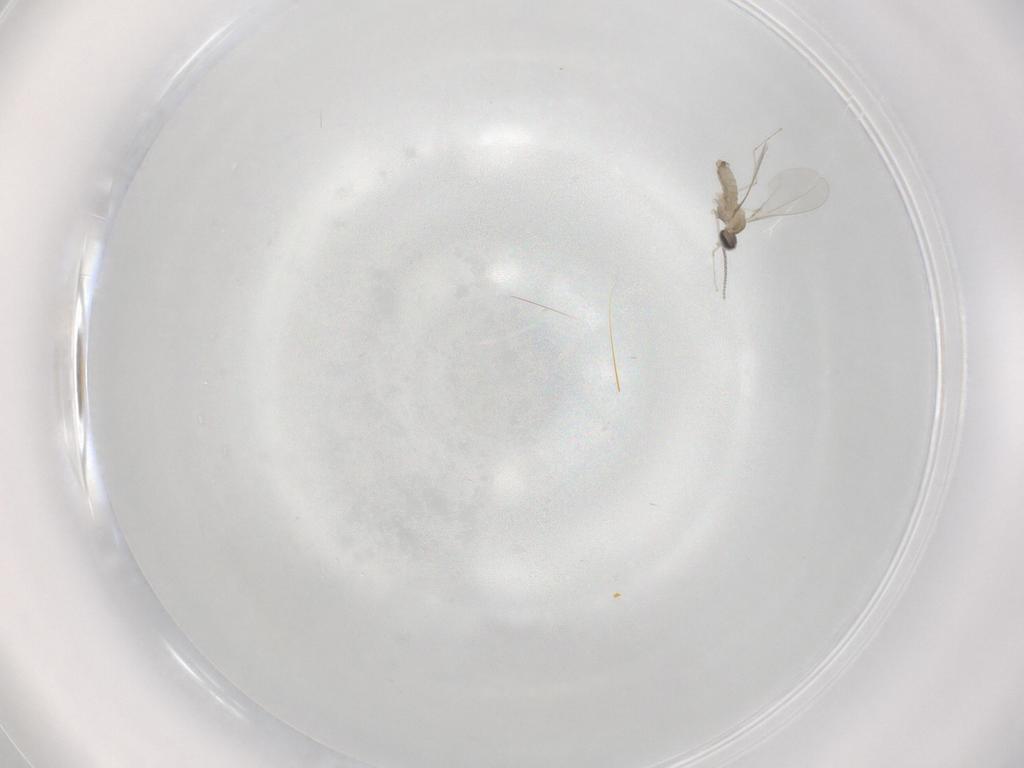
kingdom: Animalia
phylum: Arthropoda
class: Insecta
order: Diptera
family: Cecidomyiidae
